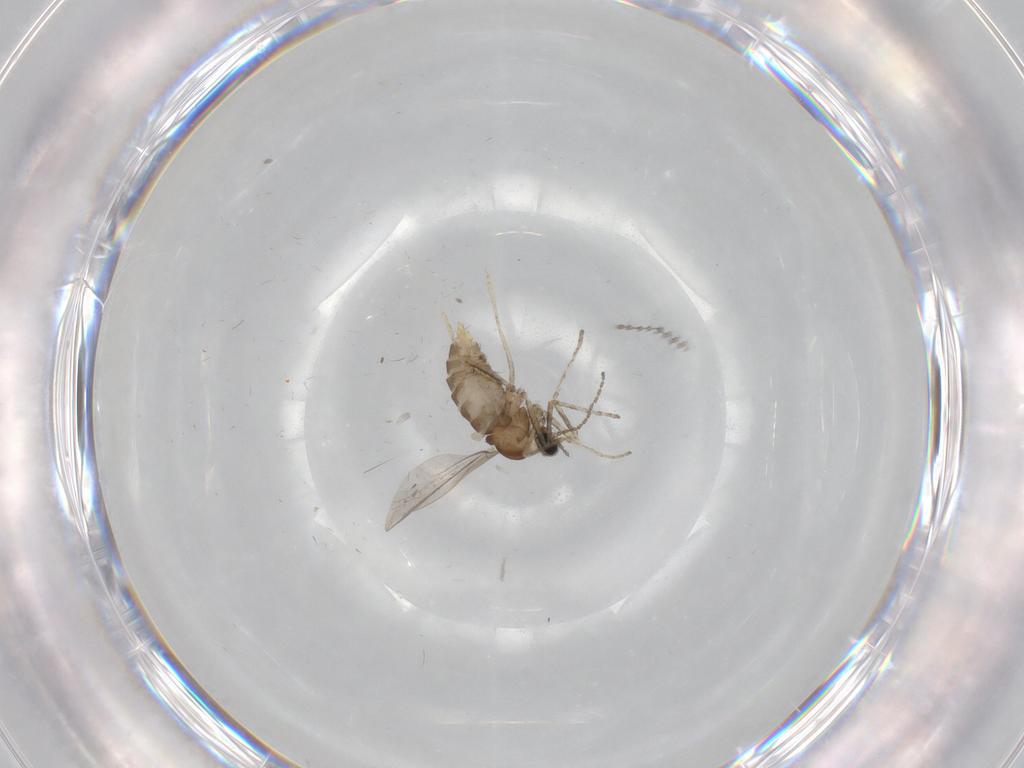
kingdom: Animalia
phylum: Arthropoda
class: Insecta
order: Diptera
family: Cecidomyiidae
